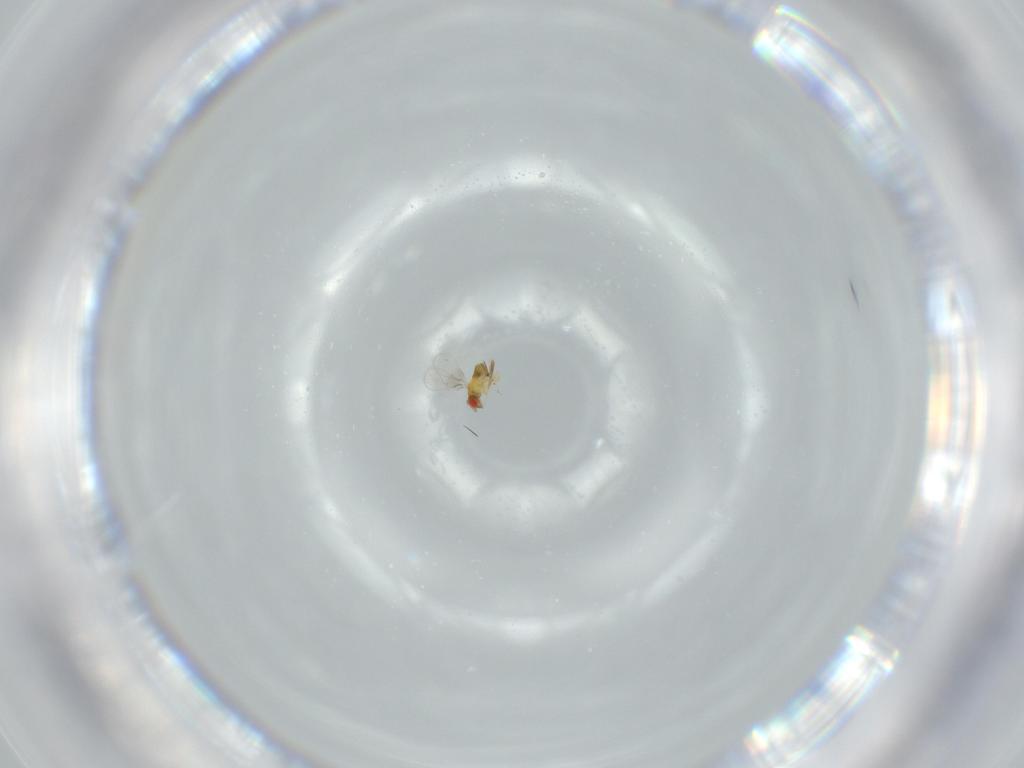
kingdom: Animalia
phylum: Arthropoda
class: Insecta
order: Hymenoptera
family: Trichogrammatidae
